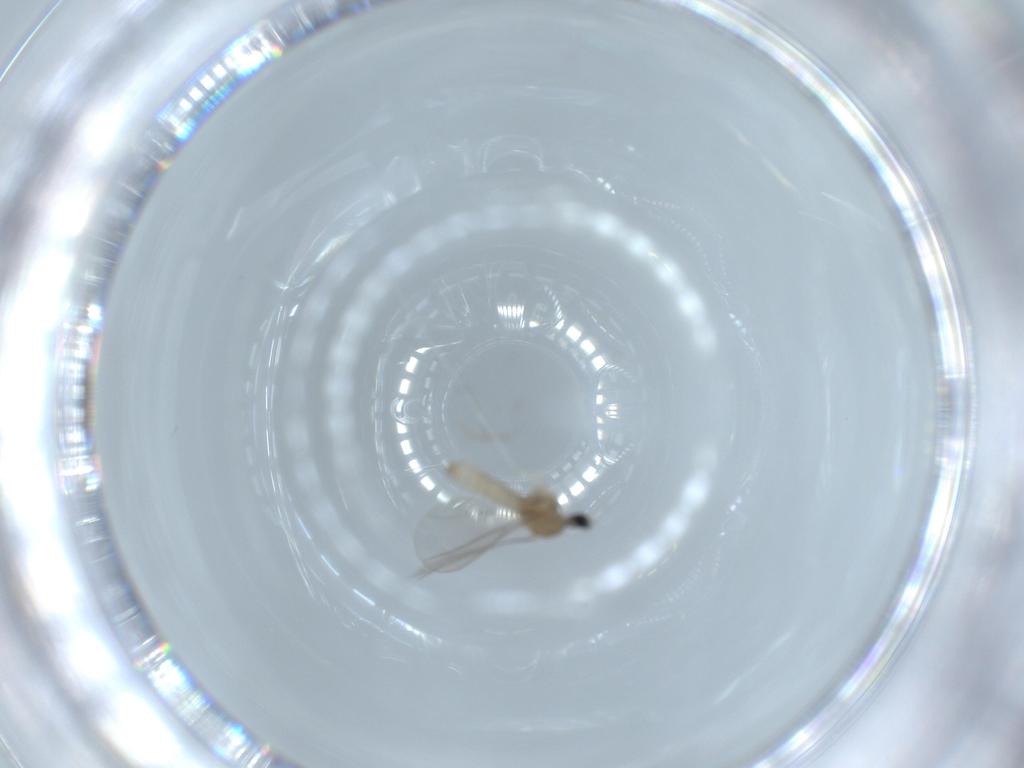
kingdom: Animalia
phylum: Arthropoda
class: Insecta
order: Diptera
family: Cecidomyiidae
